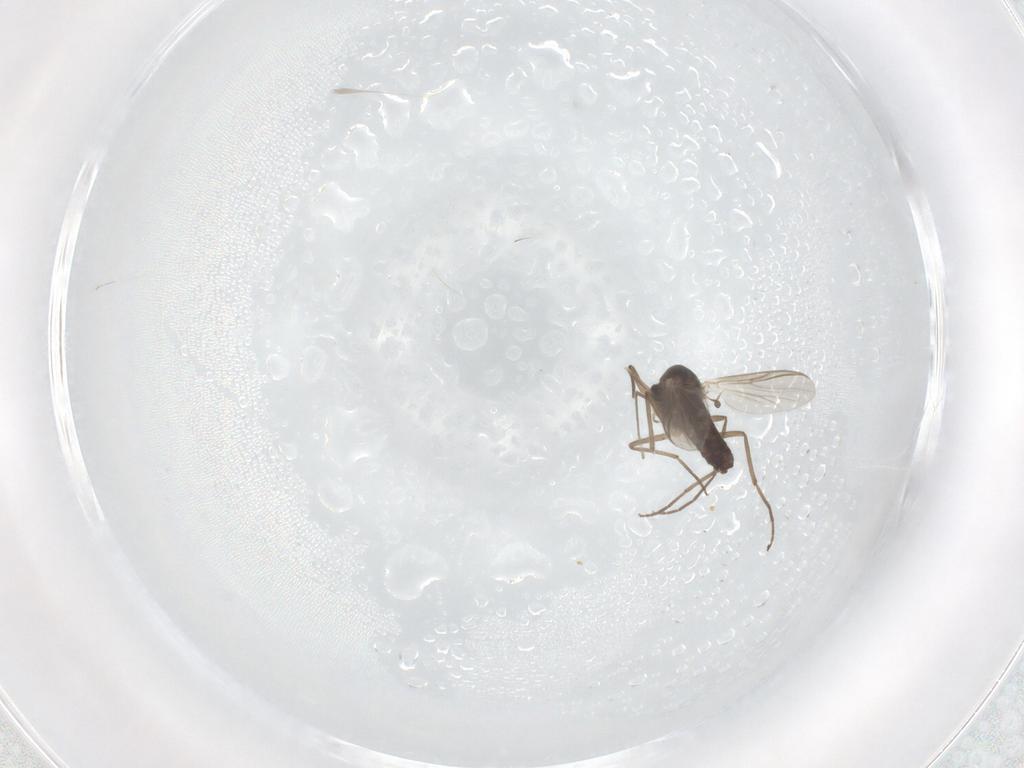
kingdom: Animalia
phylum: Arthropoda
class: Insecta
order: Diptera
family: Chironomidae
